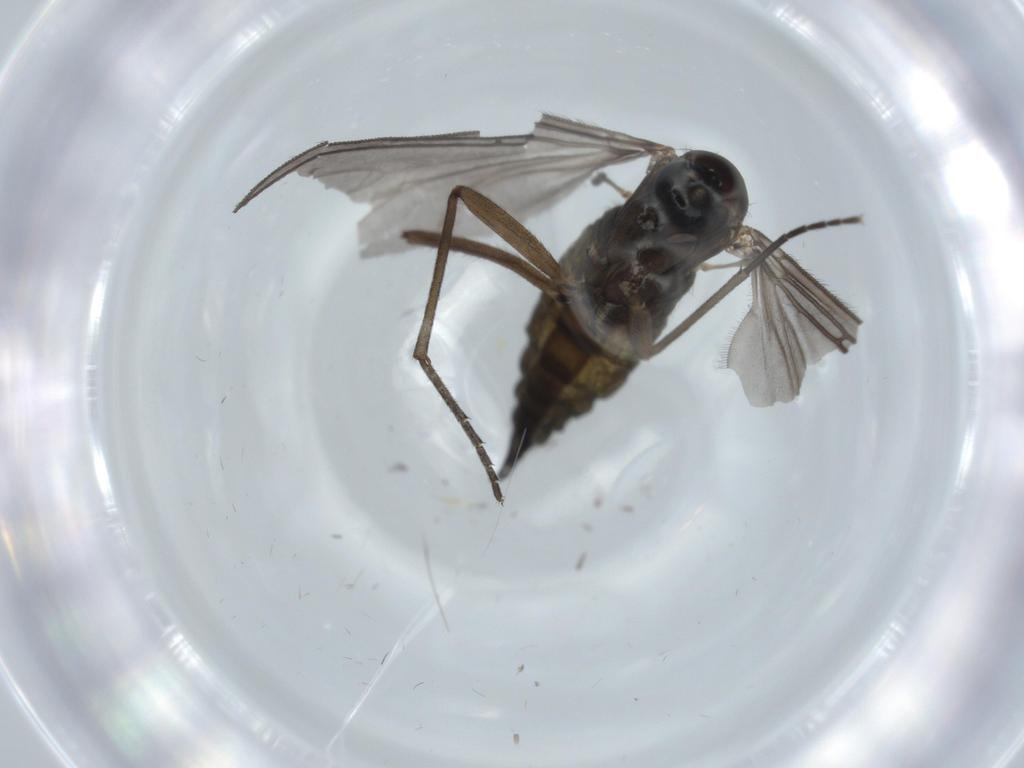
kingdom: Animalia
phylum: Arthropoda
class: Insecta
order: Diptera
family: Sciaridae
